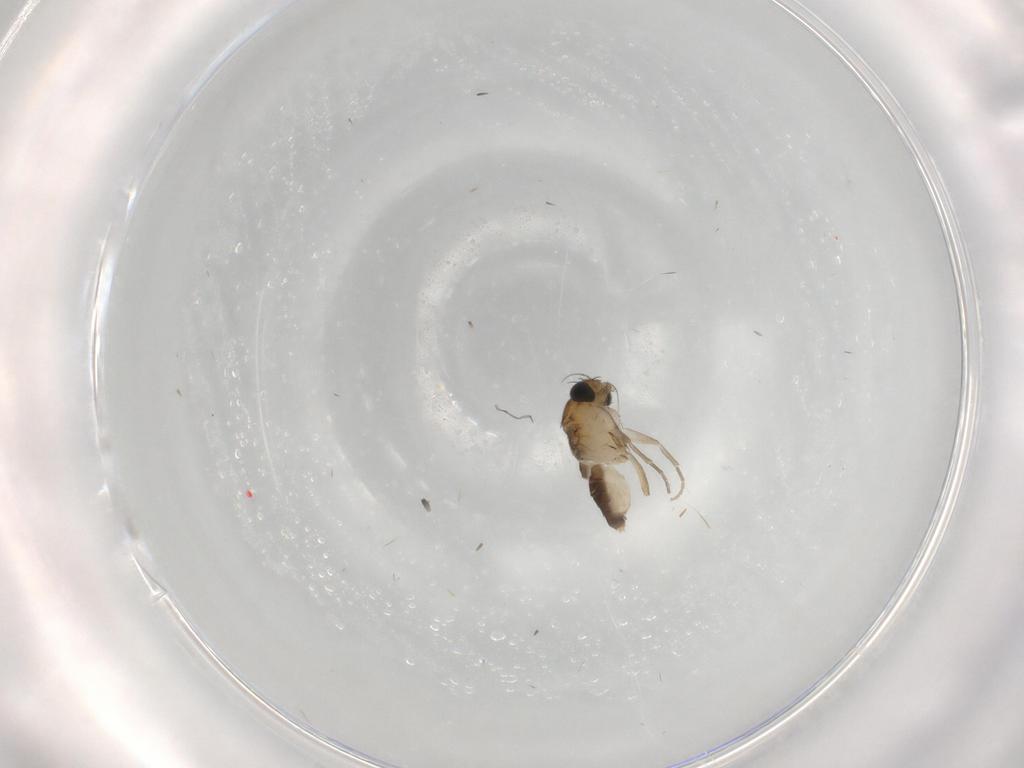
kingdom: Animalia
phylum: Arthropoda
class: Insecta
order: Diptera
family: Phoridae
